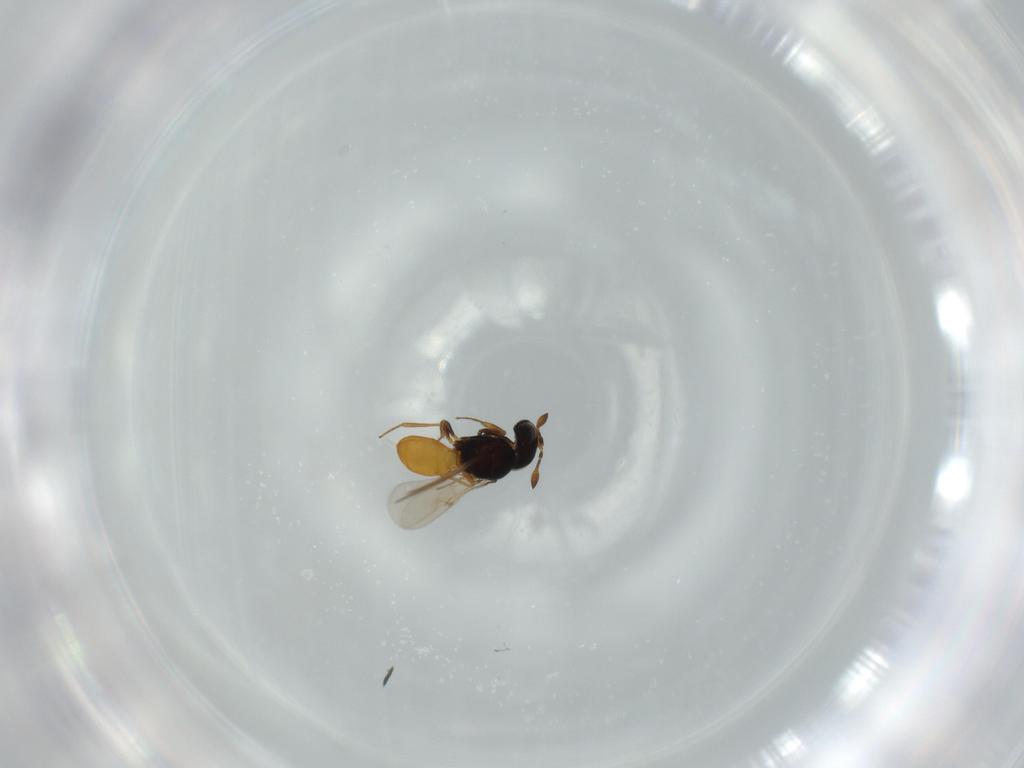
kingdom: Animalia
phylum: Arthropoda
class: Insecta
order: Hymenoptera
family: Scelionidae
